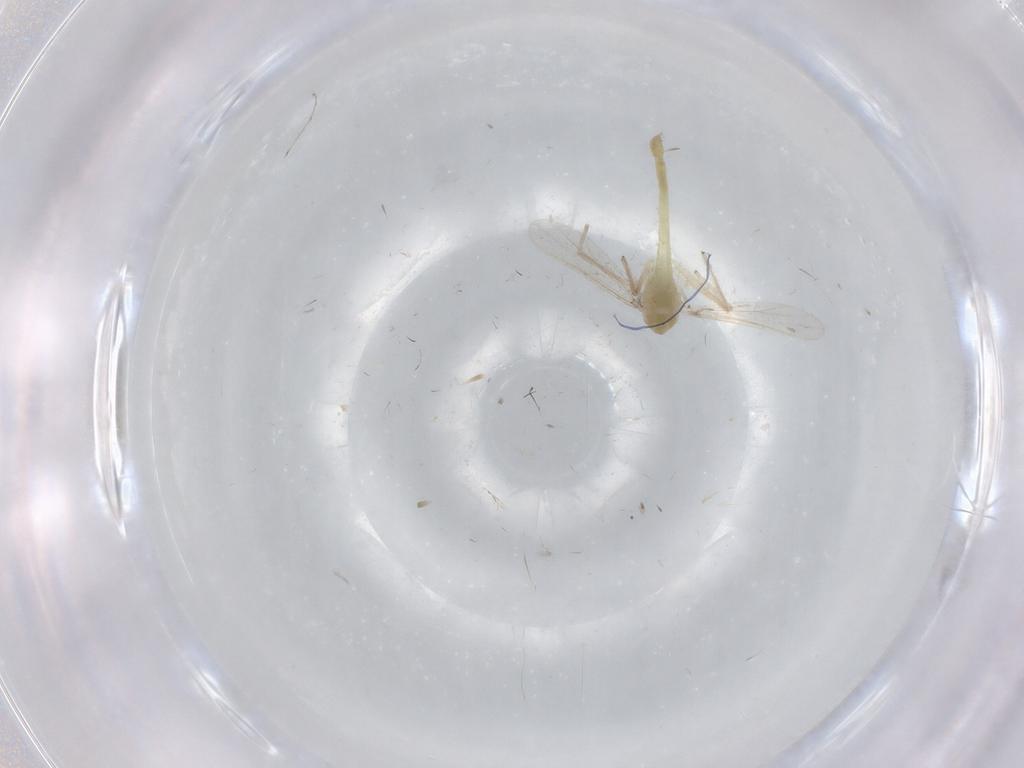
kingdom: Animalia
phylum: Arthropoda
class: Insecta
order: Diptera
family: Chironomidae
